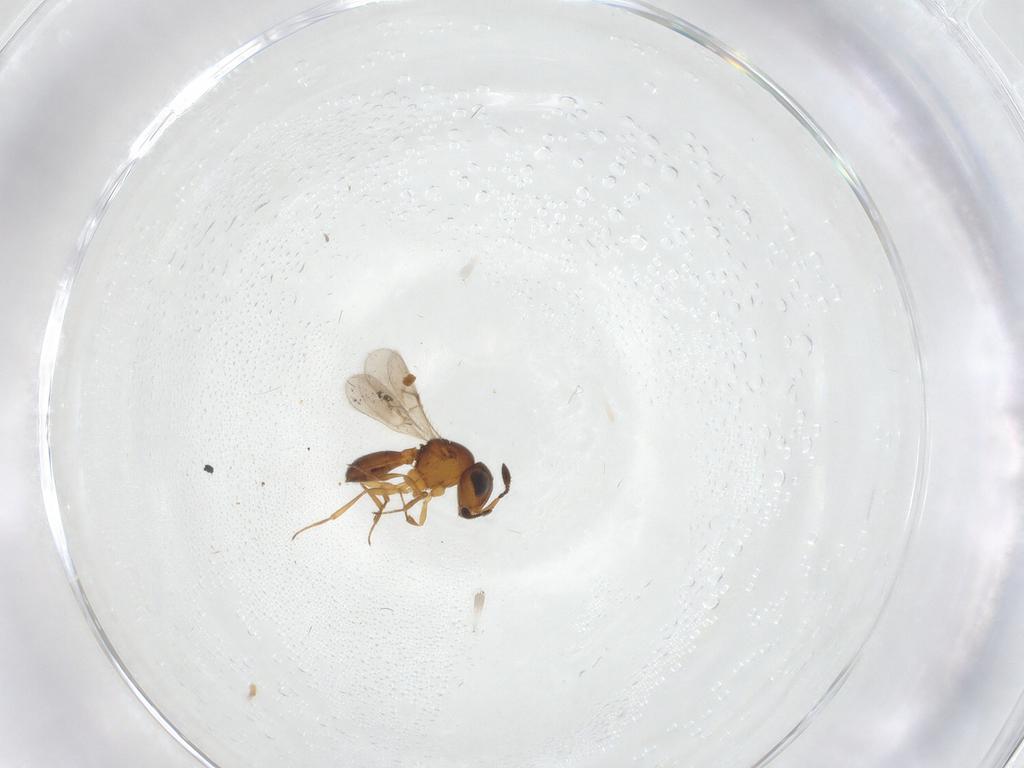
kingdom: Animalia
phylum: Arthropoda
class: Insecta
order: Hymenoptera
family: Scelionidae
